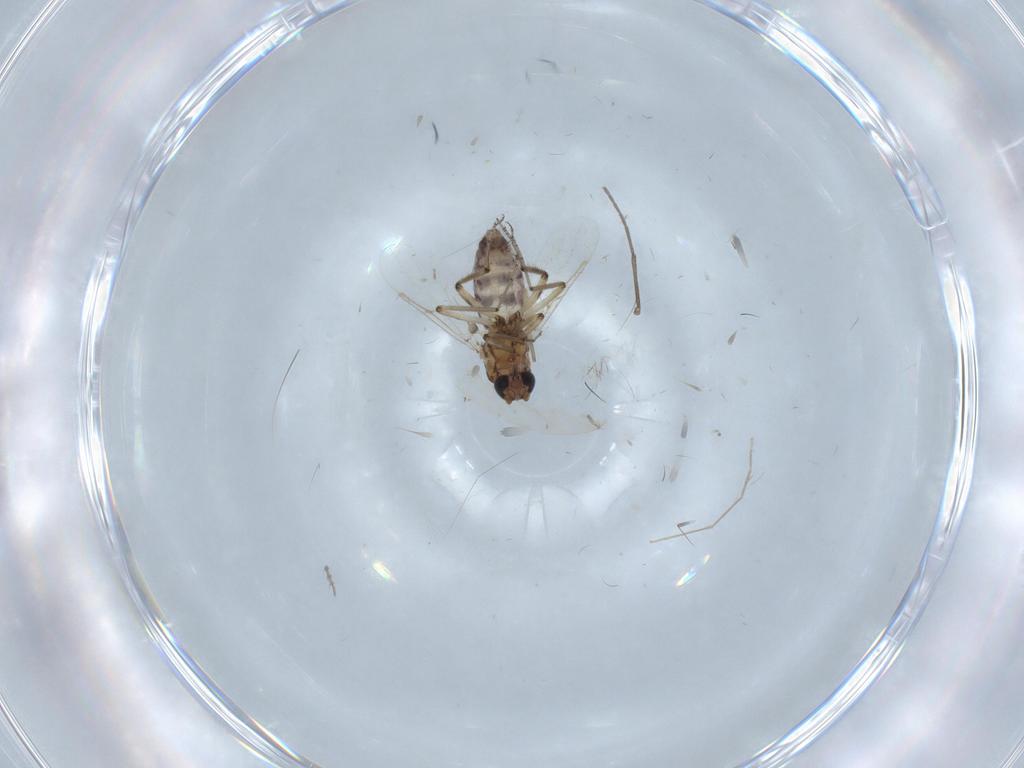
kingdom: Animalia
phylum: Arthropoda
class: Insecta
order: Diptera
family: Ceratopogonidae
